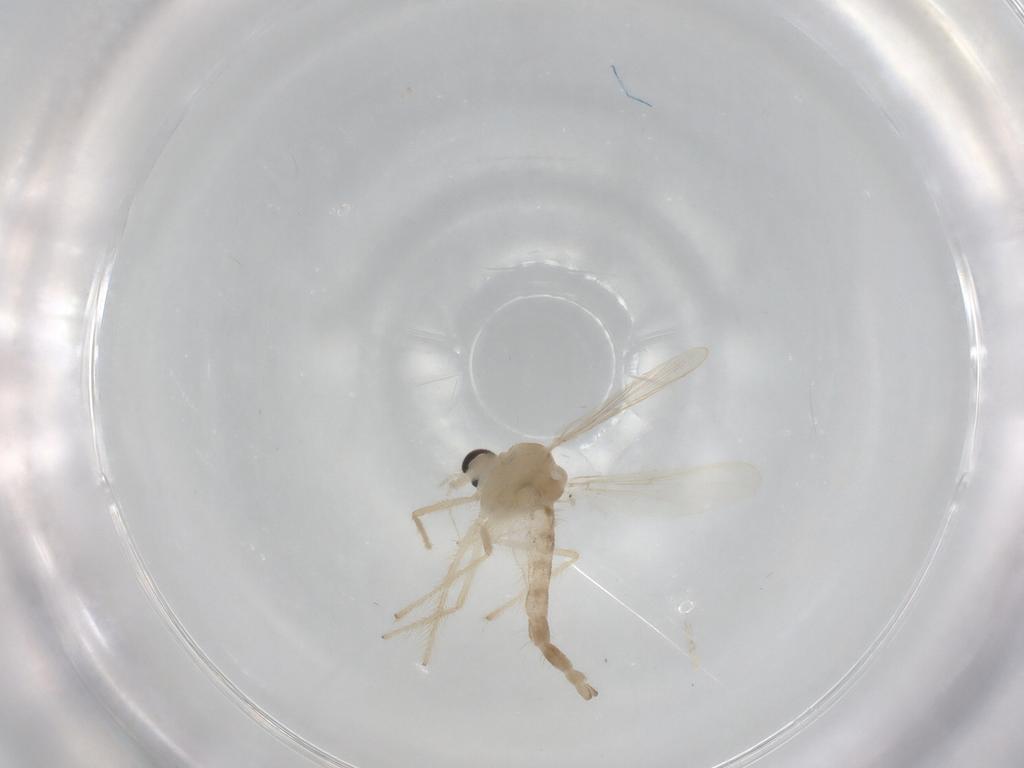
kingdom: Animalia
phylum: Arthropoda
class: Insecta
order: Diptera
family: Chironomidae
